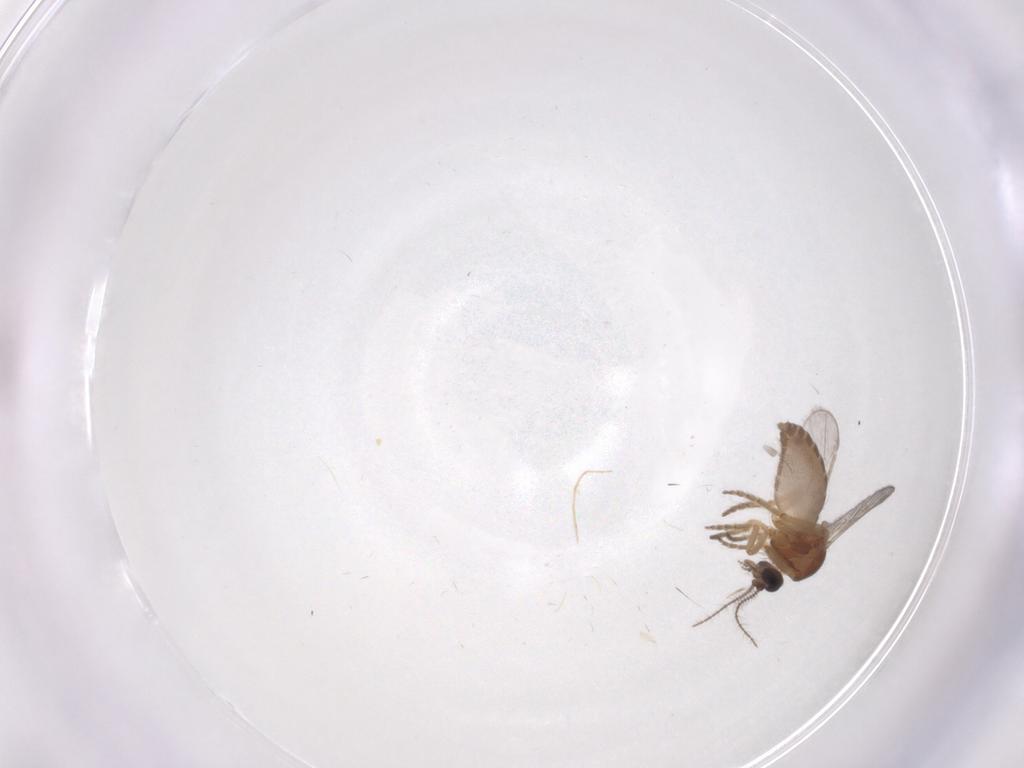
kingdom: Animalia
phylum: Arthropoda
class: Insecta
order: Diptera
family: Ceratopogonidae
